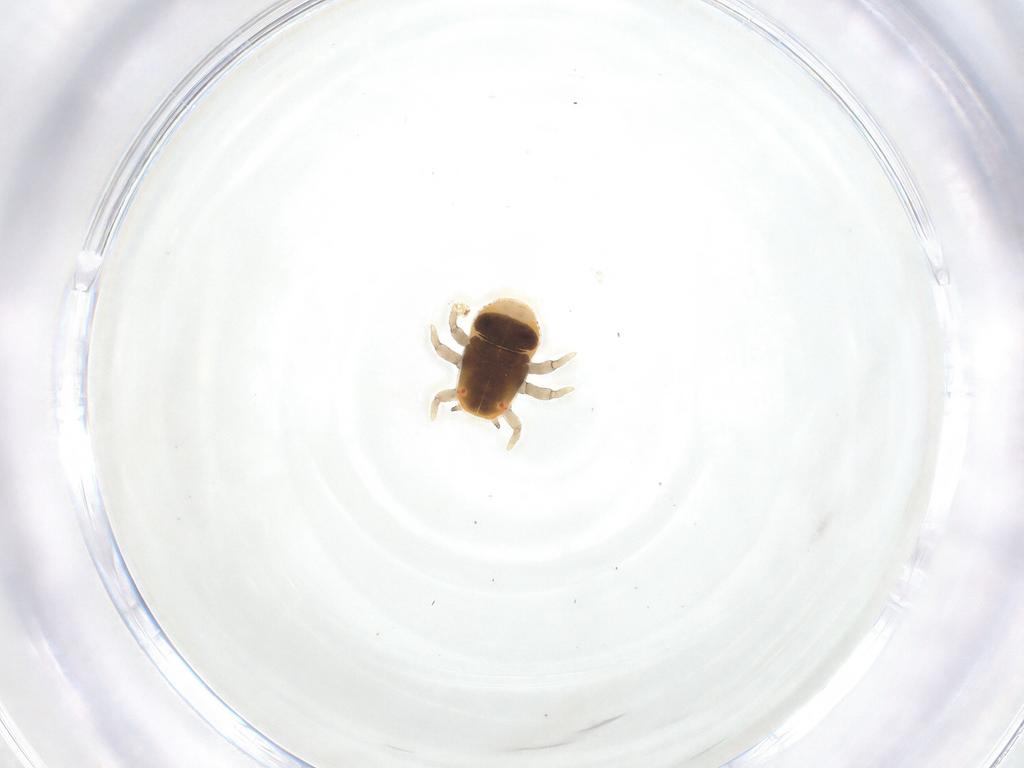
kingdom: Animalia
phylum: Arthropoda
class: Insecta
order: Hemiptera
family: Triozidae
